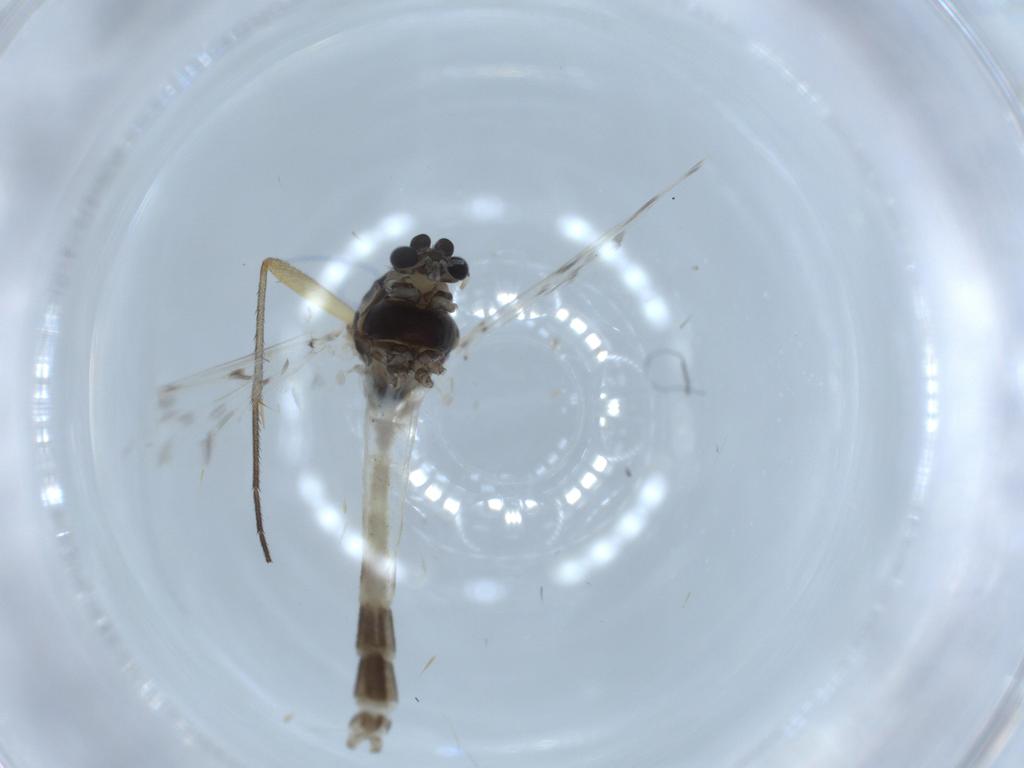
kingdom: Animalia
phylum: Arthropoda
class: Insecta
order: Diptera
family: Chironomidae
